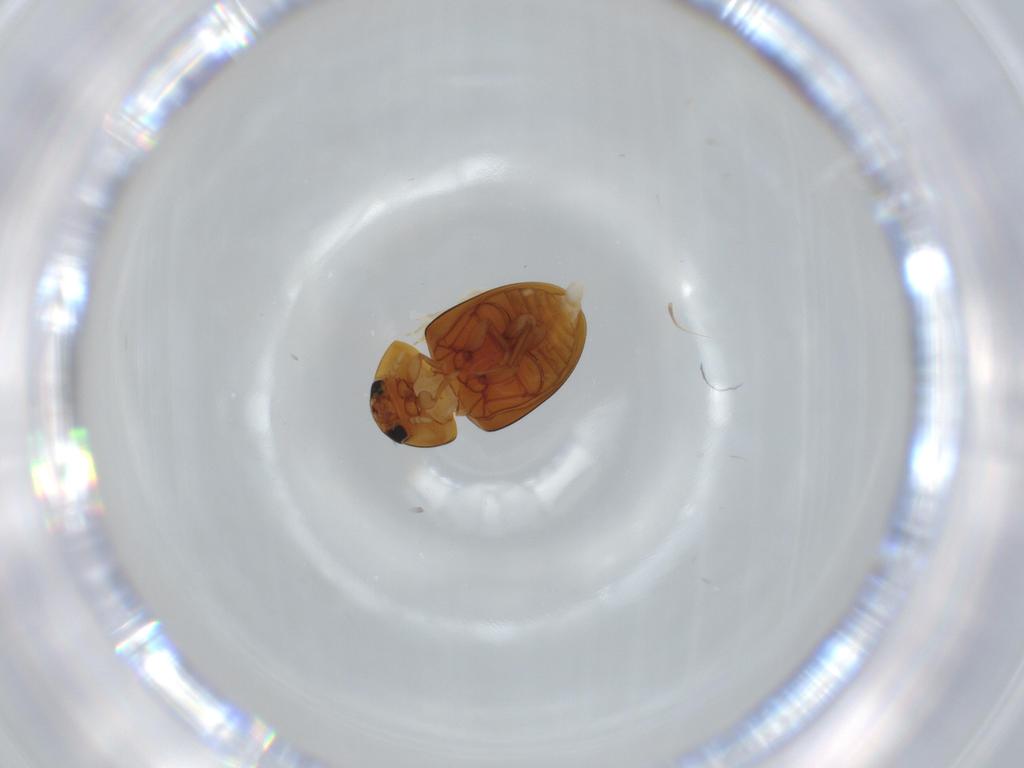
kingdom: Animalia
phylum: Arthropoda
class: Insecta
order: Coleoptera
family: Phalacridae
